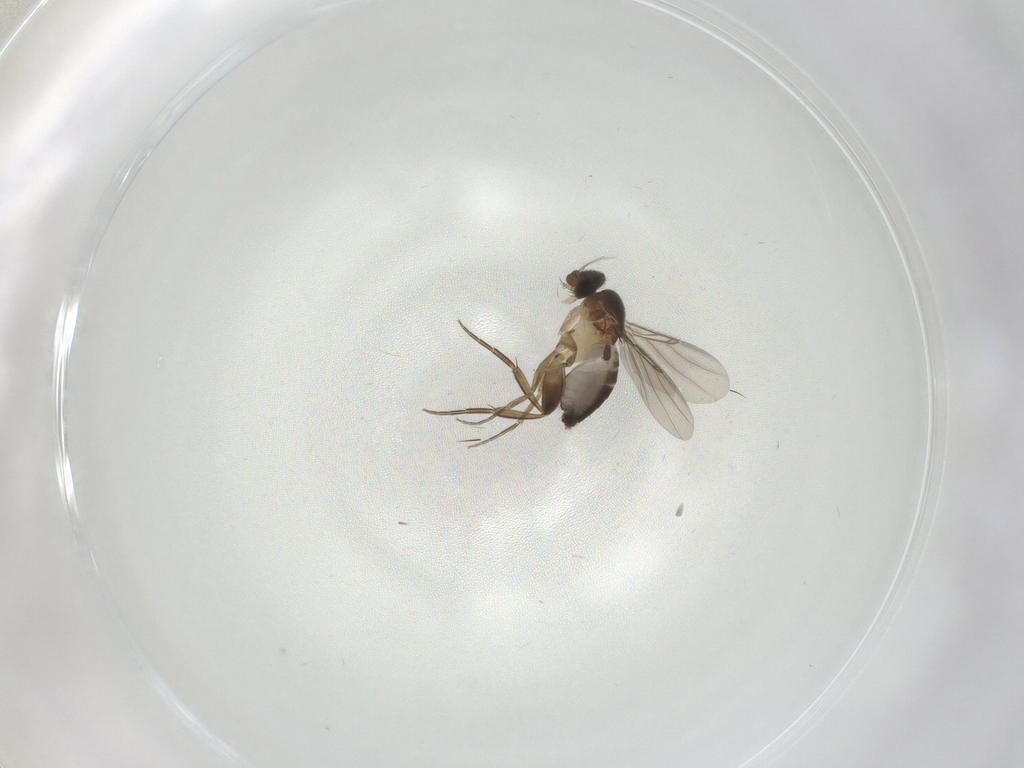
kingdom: Animalia
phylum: Arthropoda
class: Insecta
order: Diptera
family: Phoridae
